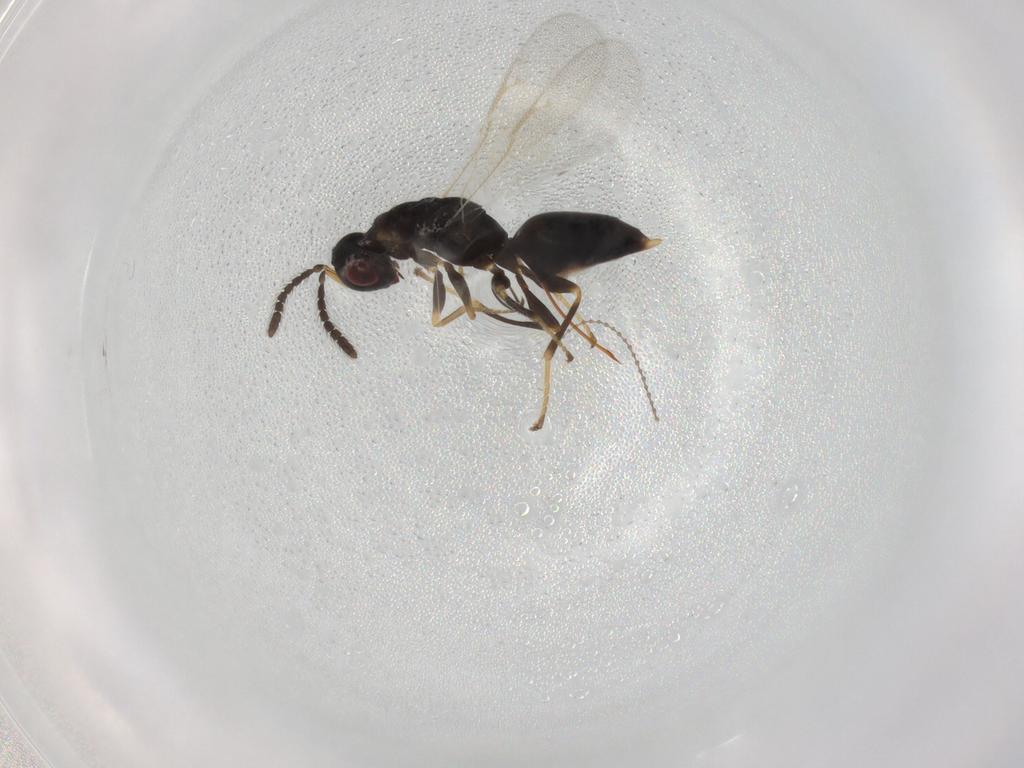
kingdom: Animalia
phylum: Arthropoda
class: Insecta
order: Hymenoptera
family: Eurytomidae
